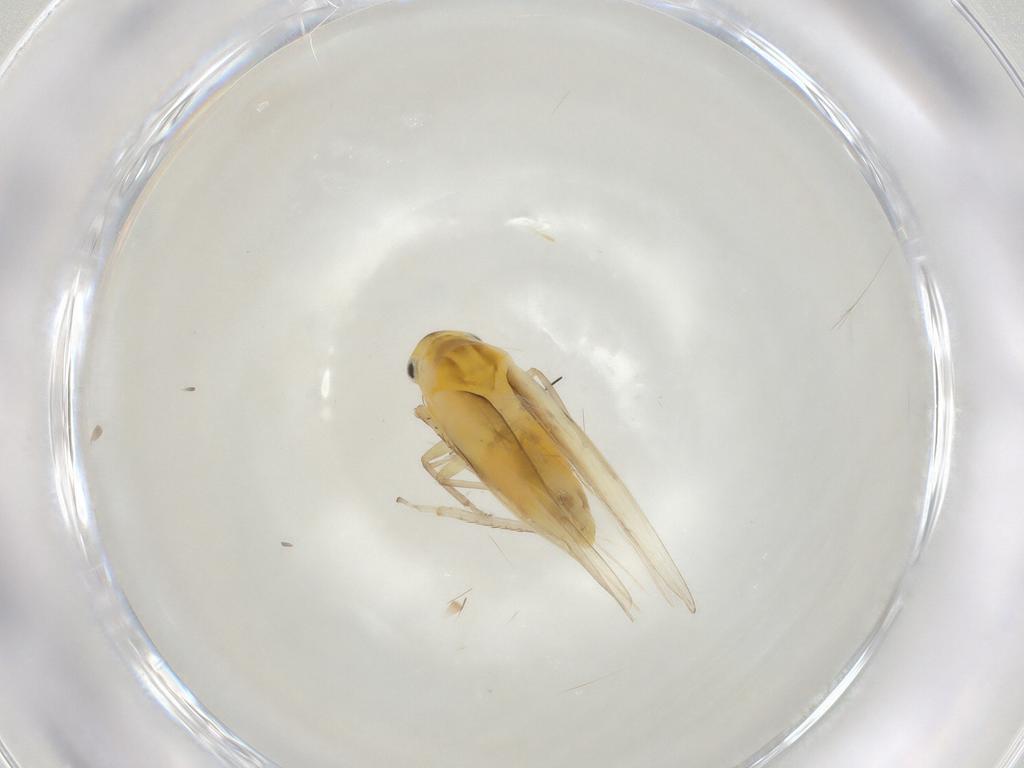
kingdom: Animalia
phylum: Arthropoda
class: Insecta
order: Hemiptera
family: Cicadellidae
